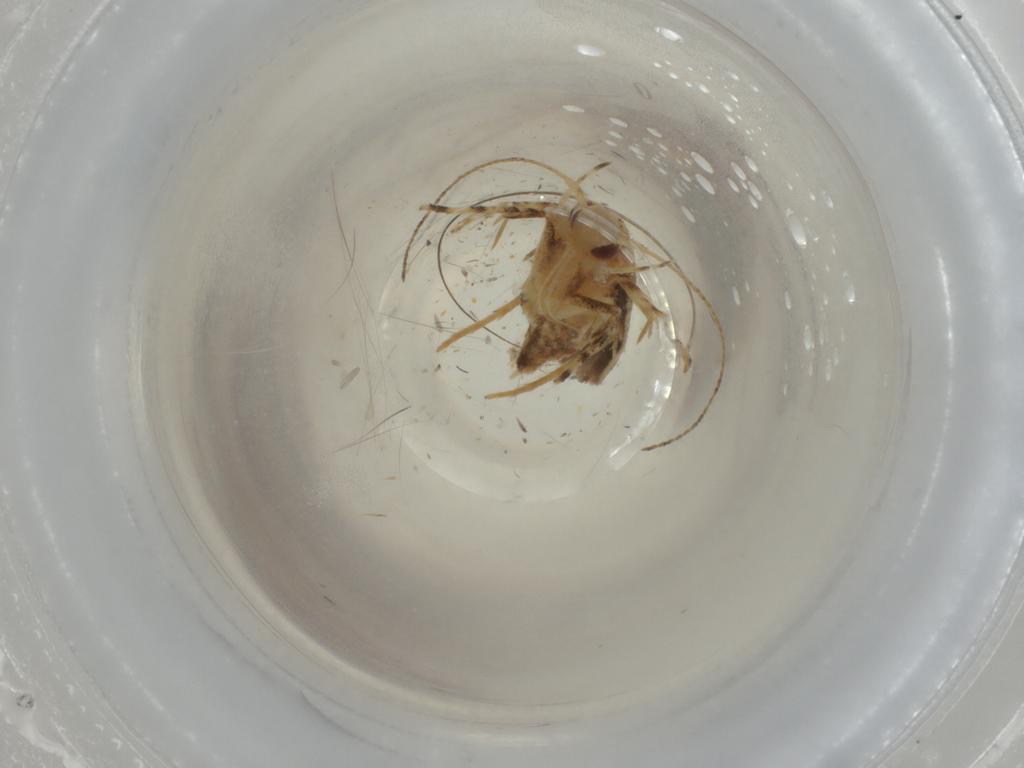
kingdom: Animalia
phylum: Arthropoda
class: Insecta
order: Lepidoptera
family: Cosmopterigidae
